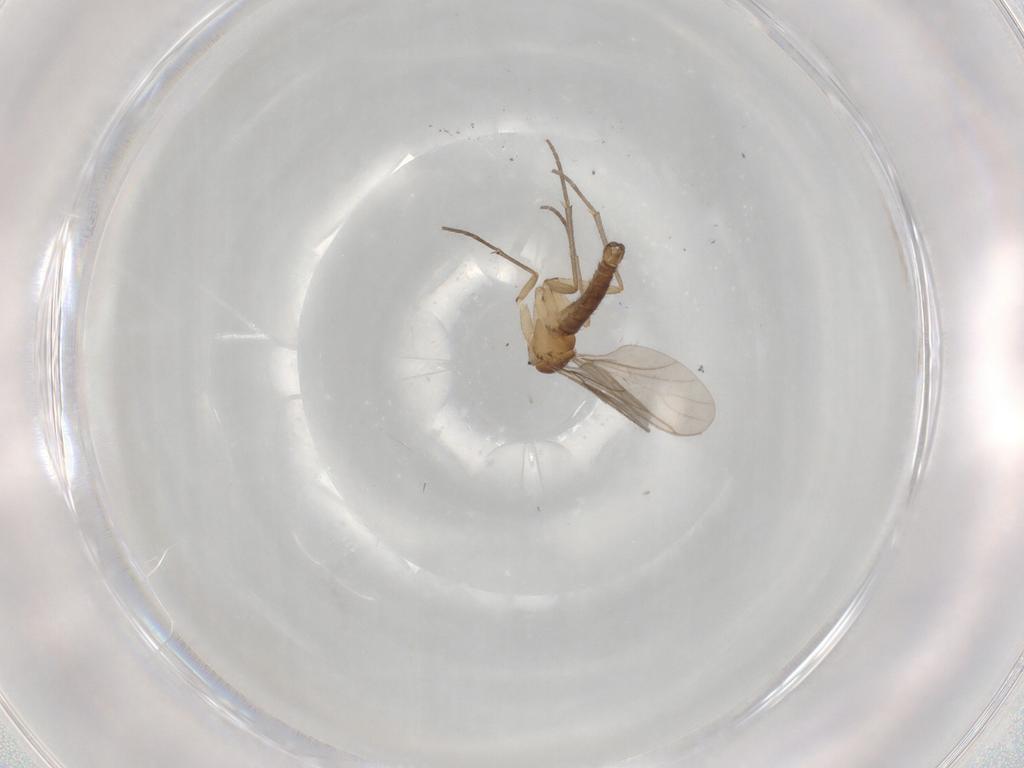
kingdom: Animalia
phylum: Arthropoda
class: Insecta
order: Diptera
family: Sciaridae
